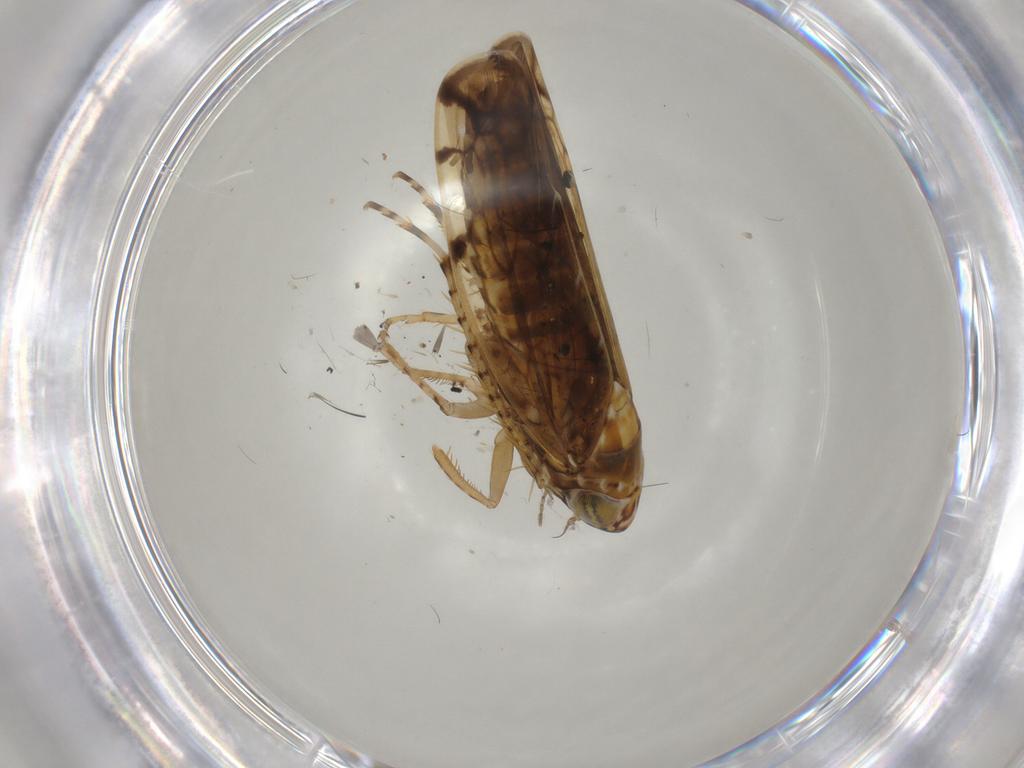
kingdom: Animalia
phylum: Arthropoda
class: Insecta
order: Hemiptera
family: Cicadellidae
